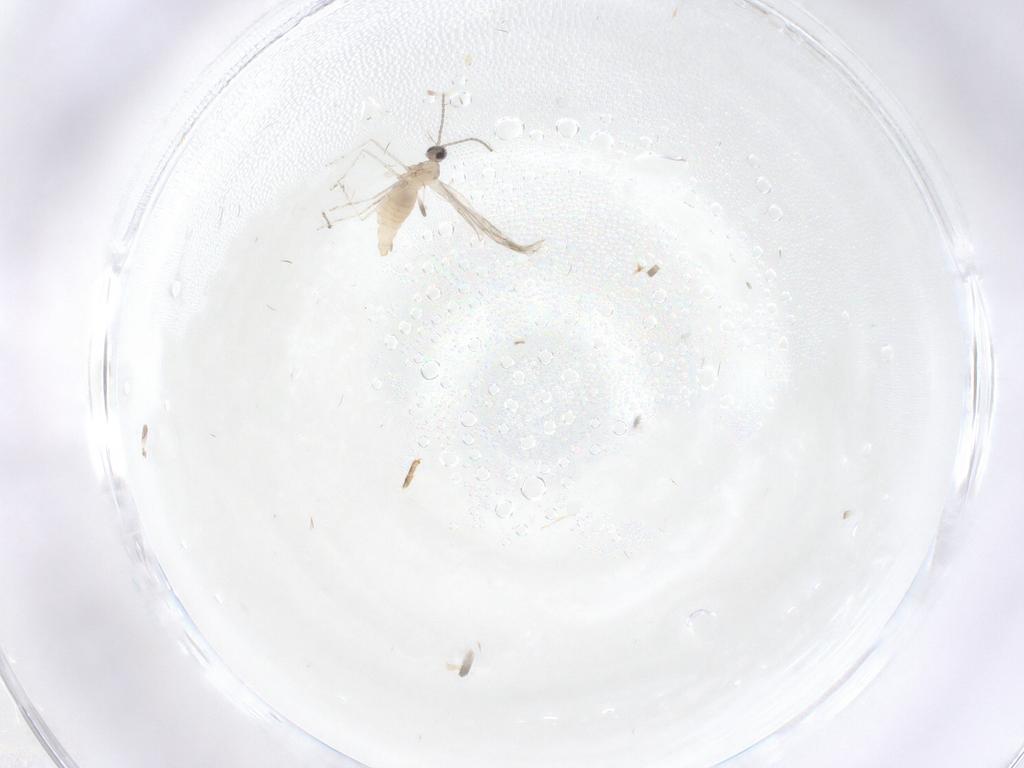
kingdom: Animalia
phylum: Arthropoda
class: Insecta
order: Diptera
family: Cecidomyiidae
